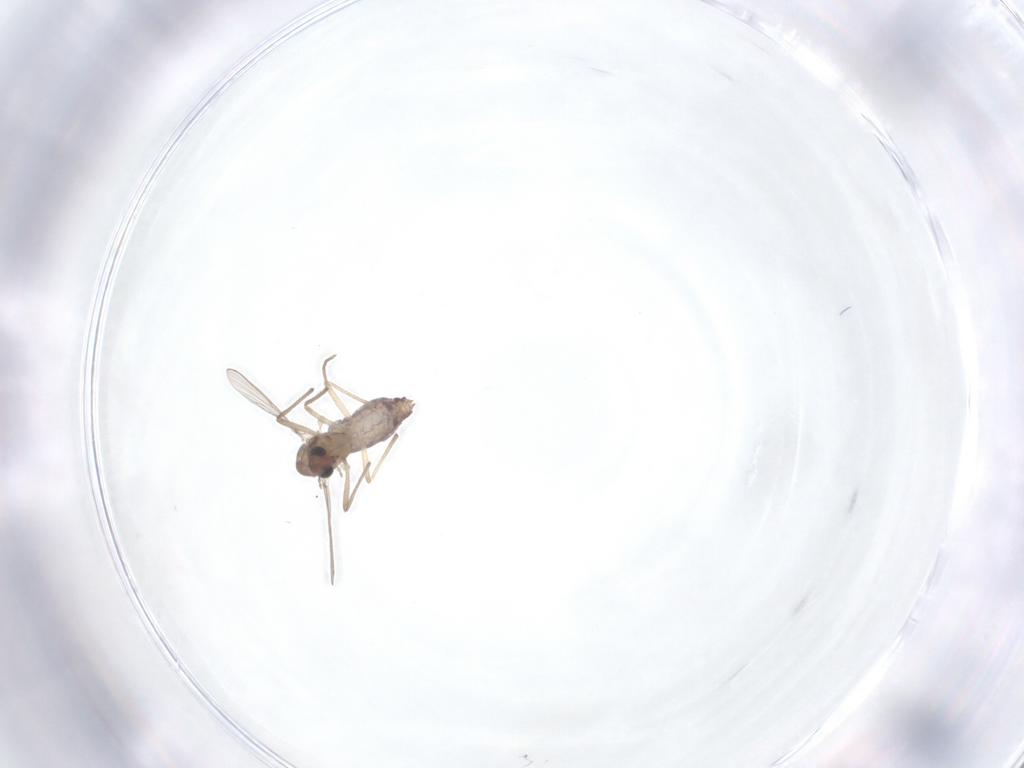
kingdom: Animalia
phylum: Arthropoda
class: Insecta
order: Diptera
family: Chironomidae
